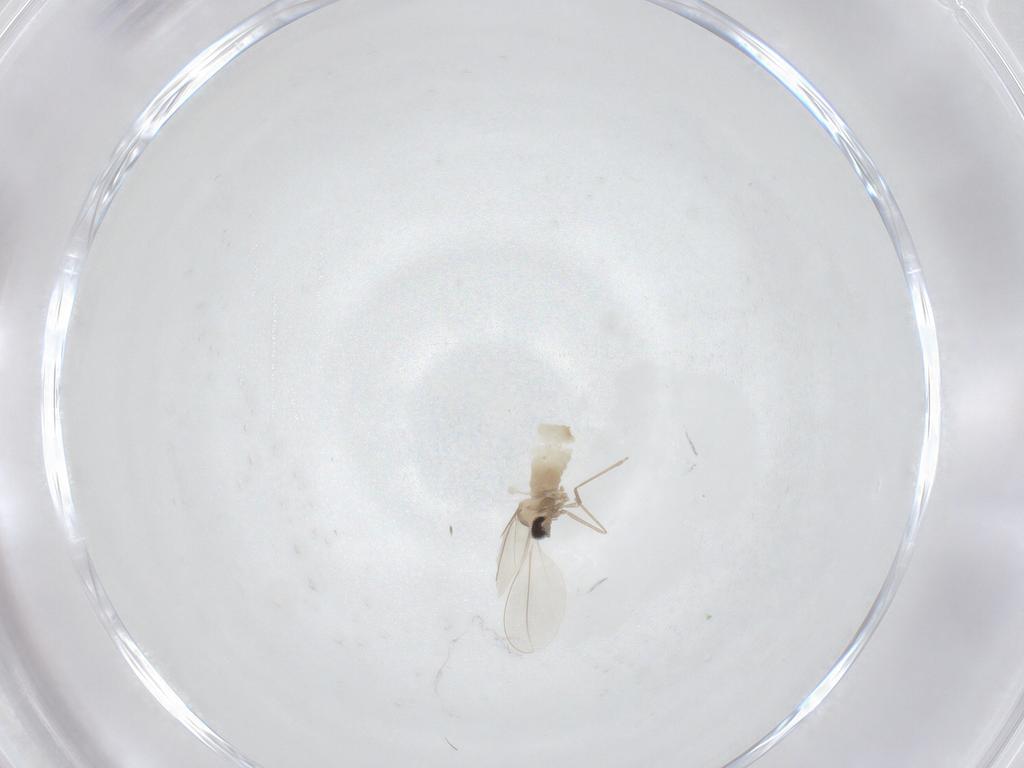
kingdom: Animalia
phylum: Arthropoda
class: Insecta
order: Diptera
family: Cecidomyiidae
